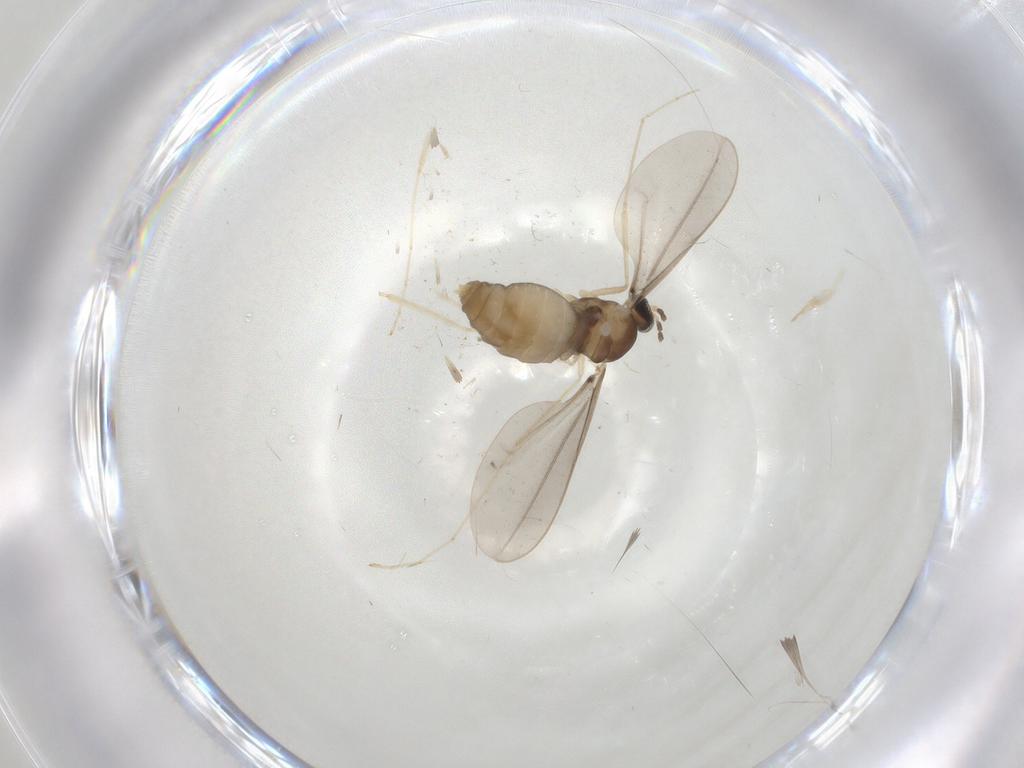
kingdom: Animalia
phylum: Arthropoda
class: Insecta
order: Diptera
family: Cecidomyiidae
